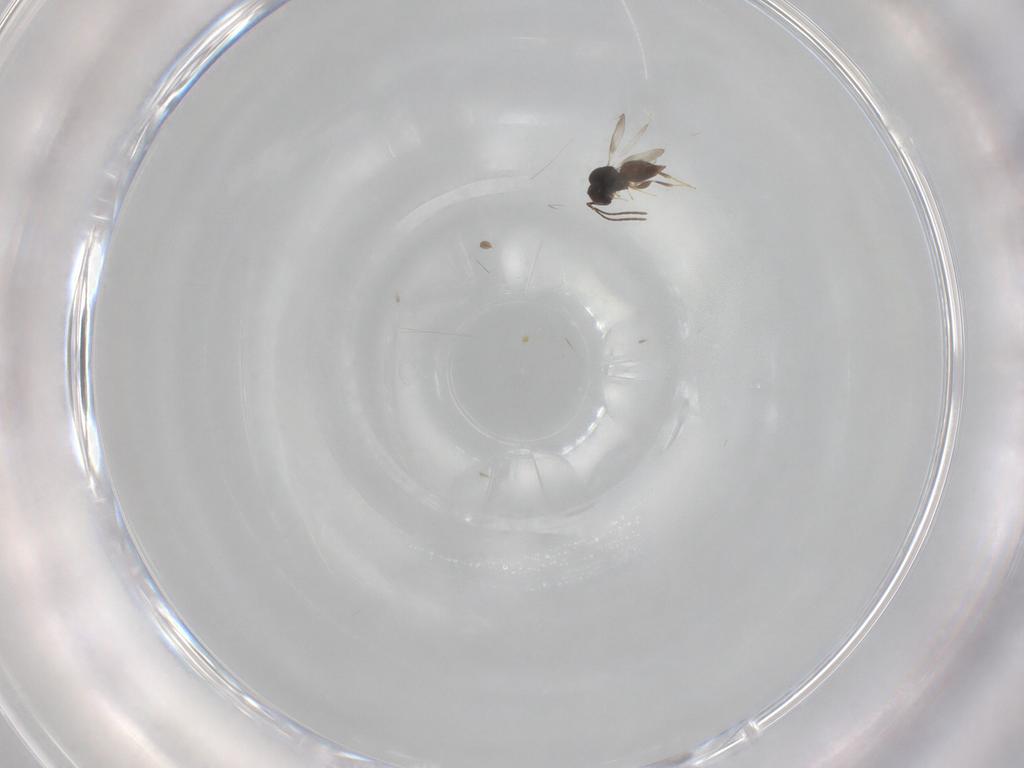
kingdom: Animalia
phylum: Arthropoda
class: Insecta
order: Hymenoptera
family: Ceraphronidae
